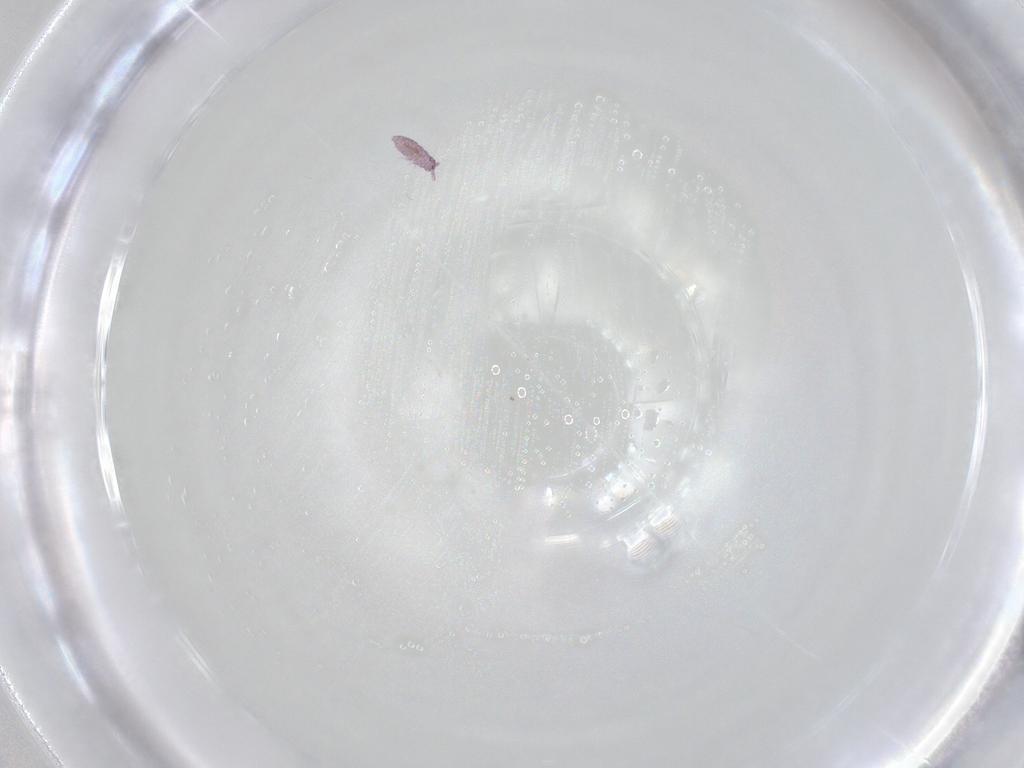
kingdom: Animalia
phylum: Arthropoda
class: Collembola
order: Poduromorpha
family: Brachystomellidae
